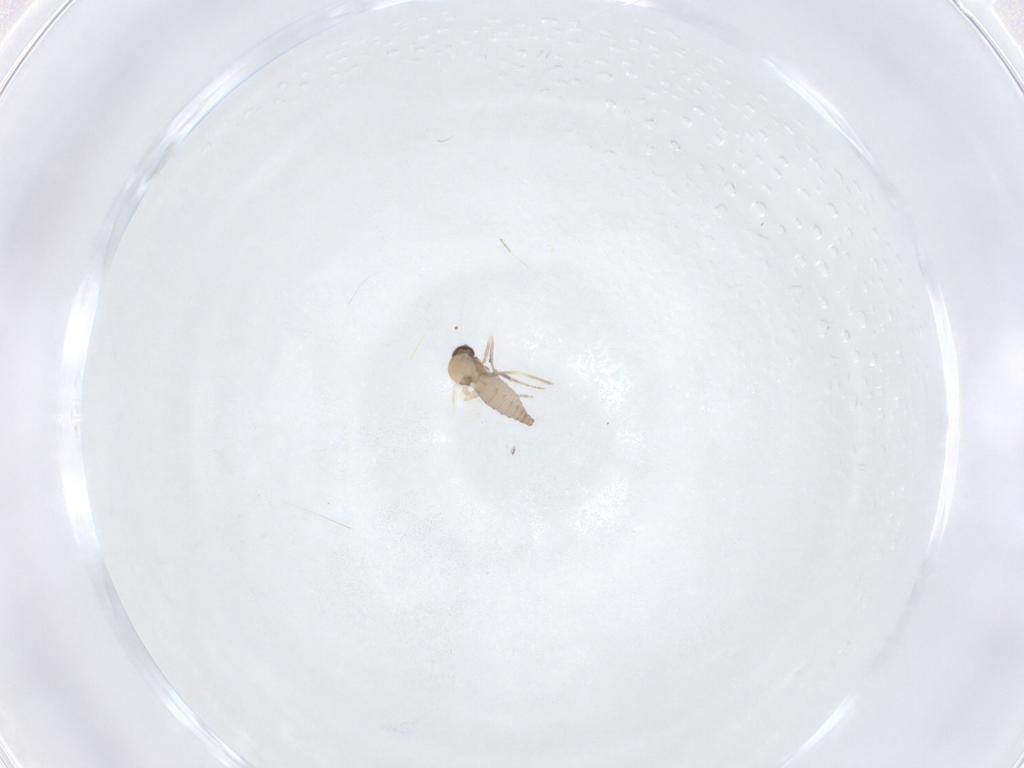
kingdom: Animalia
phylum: Arthropoda
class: Insecta
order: Diptera
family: Ceratopogonidae
